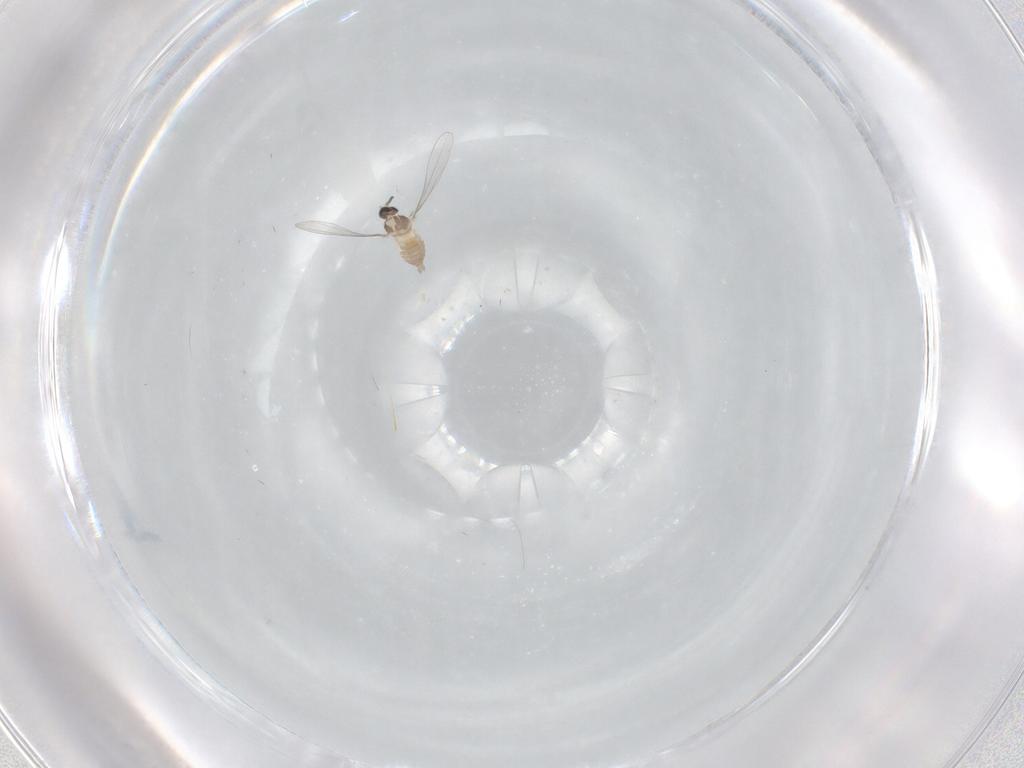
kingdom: Animalia
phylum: Arthropoda
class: Insecta
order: Diptera
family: Cecidomyiidae
